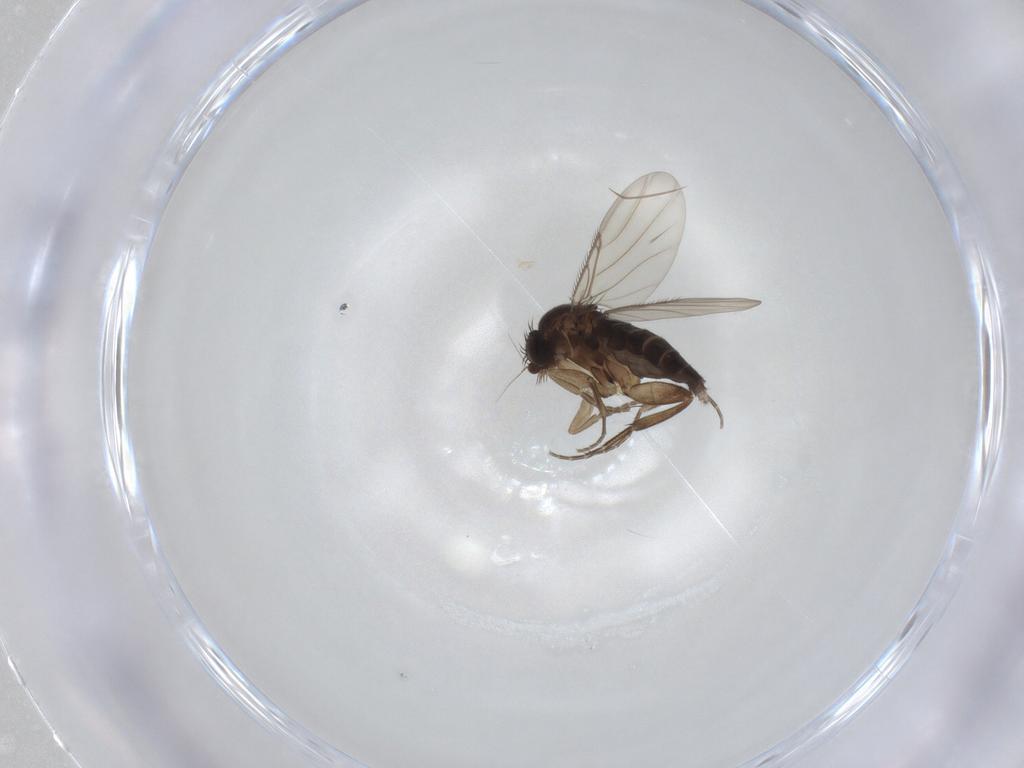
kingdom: Animalia
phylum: Arthropoda
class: Insecta
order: Diptera
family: Phoridae
